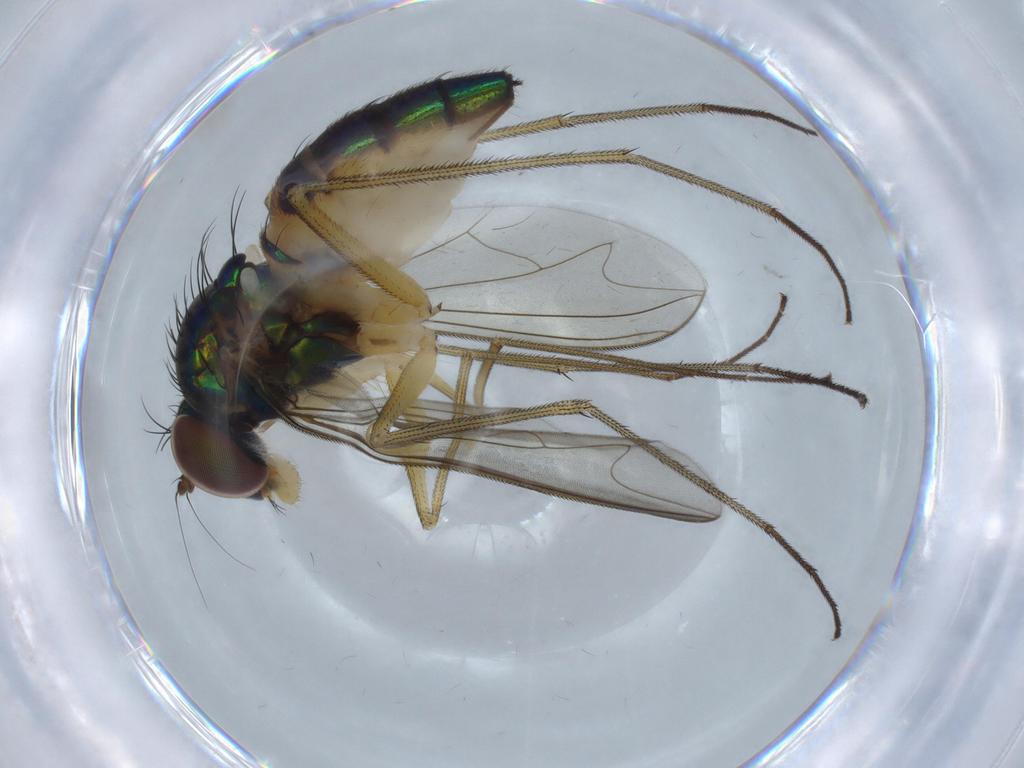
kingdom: Animalia
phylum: Arthropoda
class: Insecta
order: Diptera
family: Dolichopodidae
